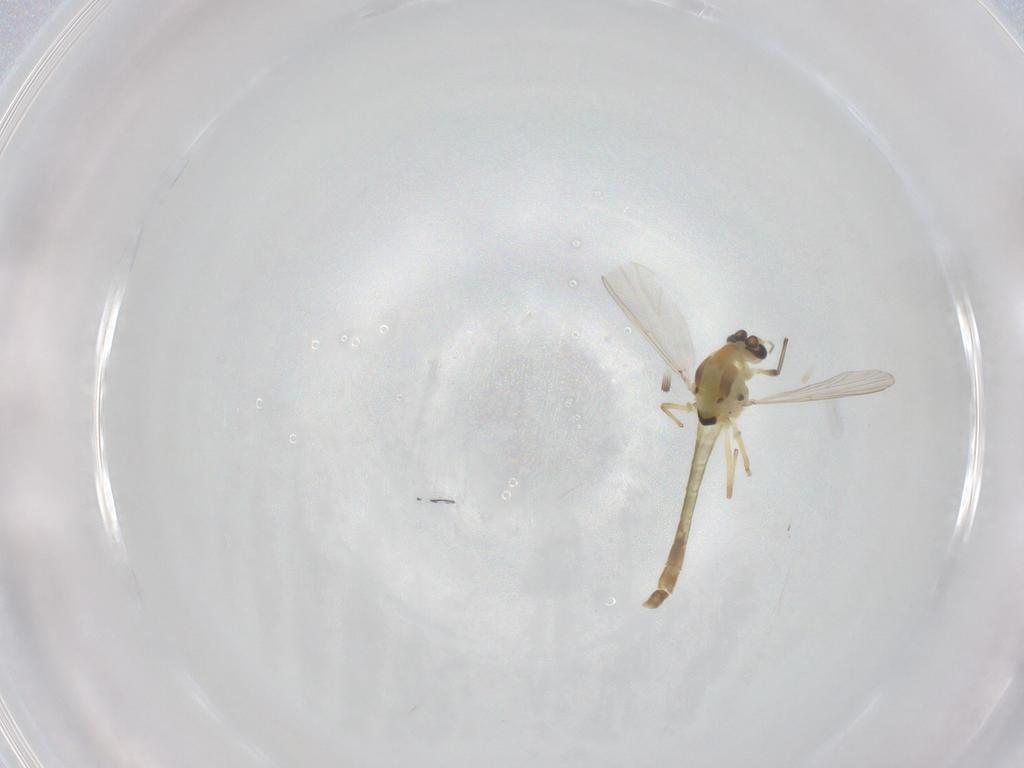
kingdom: Animalia
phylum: Arthropoda
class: Insecta
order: Diptera
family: Chironomidae
